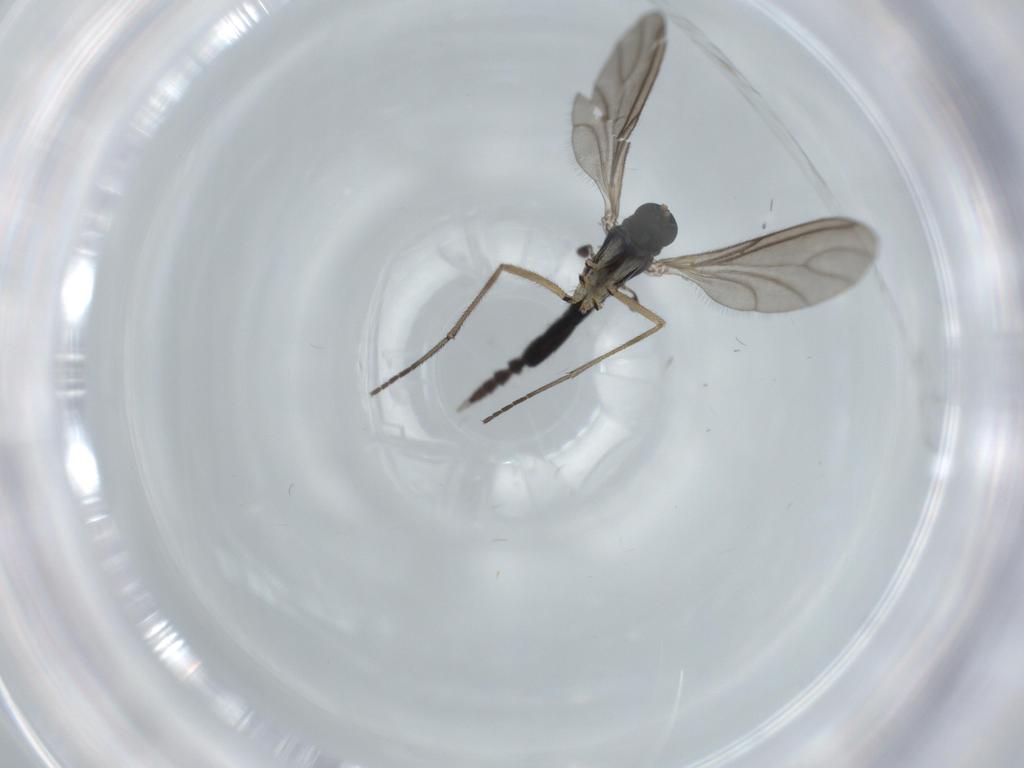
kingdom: Animalia
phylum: Arthropoda
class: Insecta
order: Diptera
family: Sciaridae
